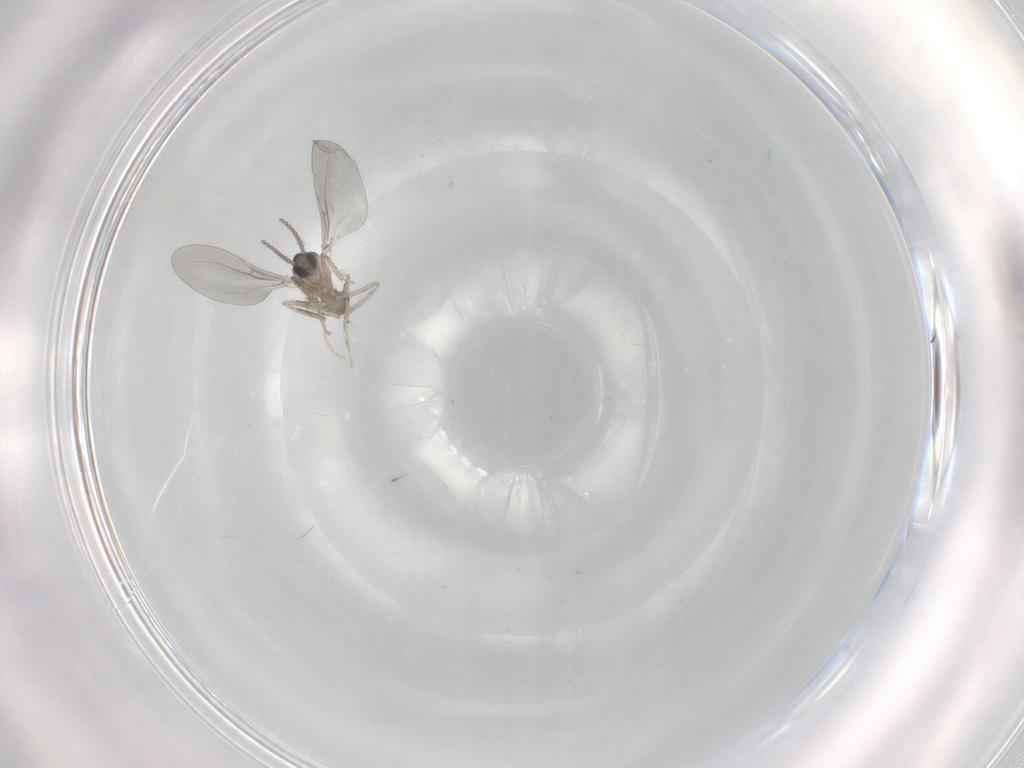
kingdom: Animalia
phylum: Arthropoda
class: Insecta
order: Diptera
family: Cecidomyiidae
